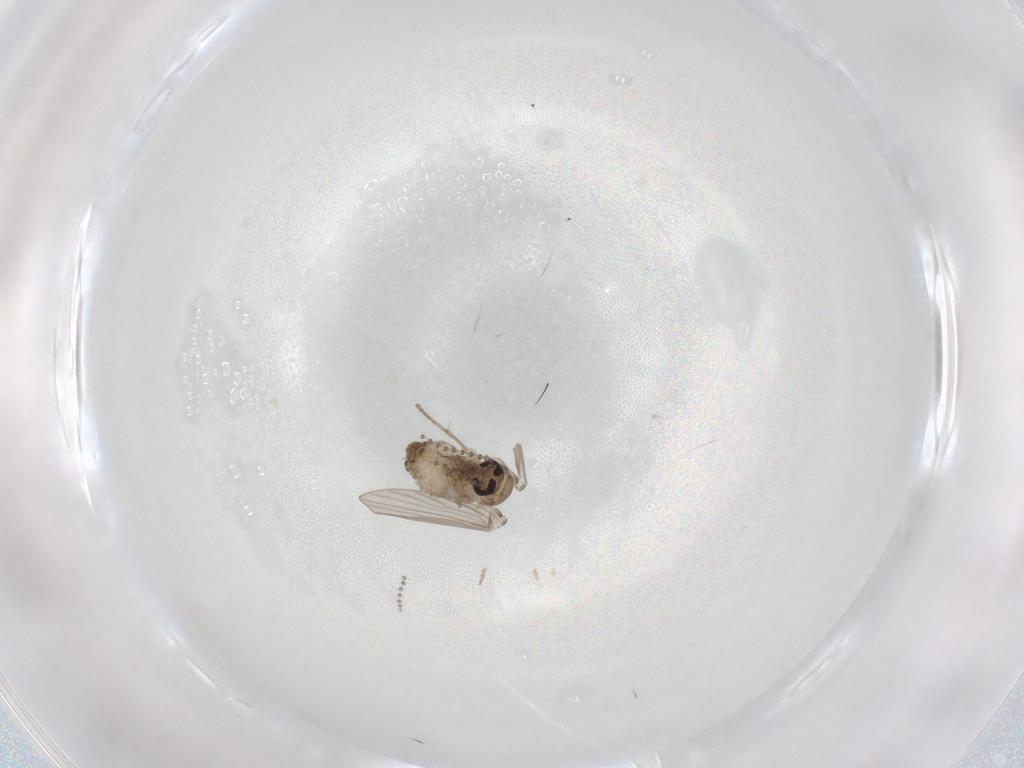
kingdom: Animalia
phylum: Arthropoda
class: Insecta
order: Diptera
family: Psychodidae
